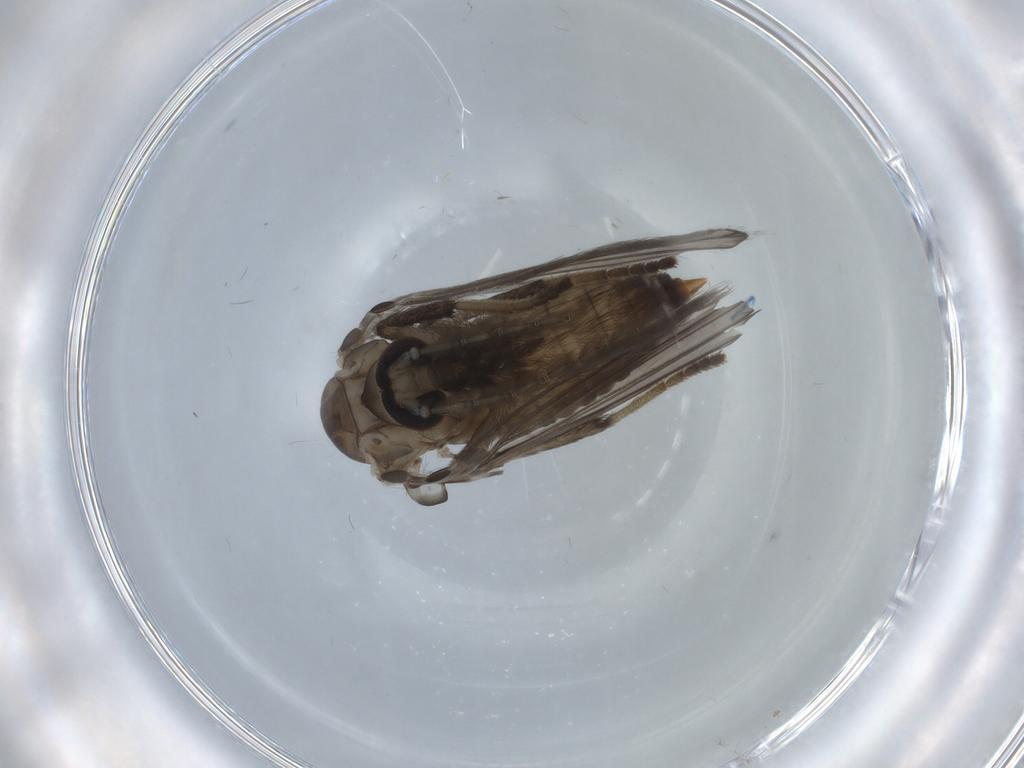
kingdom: Animalia
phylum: Arthropoda
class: Insecta
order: Diptera
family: Psychodidae
